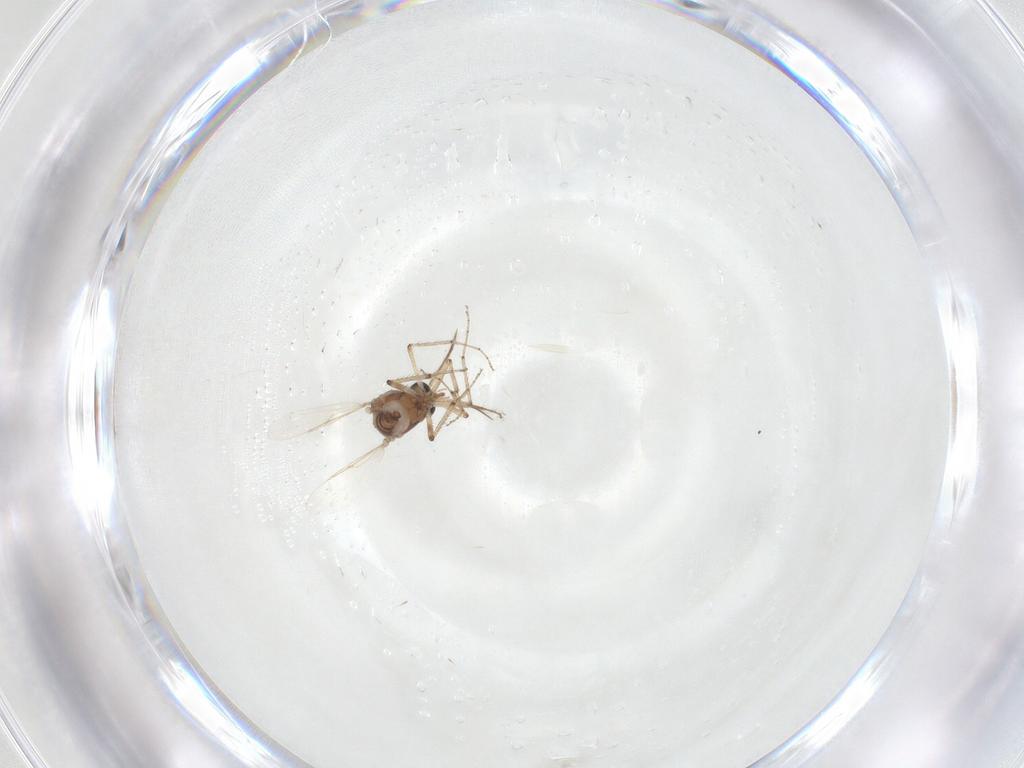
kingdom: Animalia
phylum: Arthropoda
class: Insecta
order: Diptera
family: Ceratopogonidae
